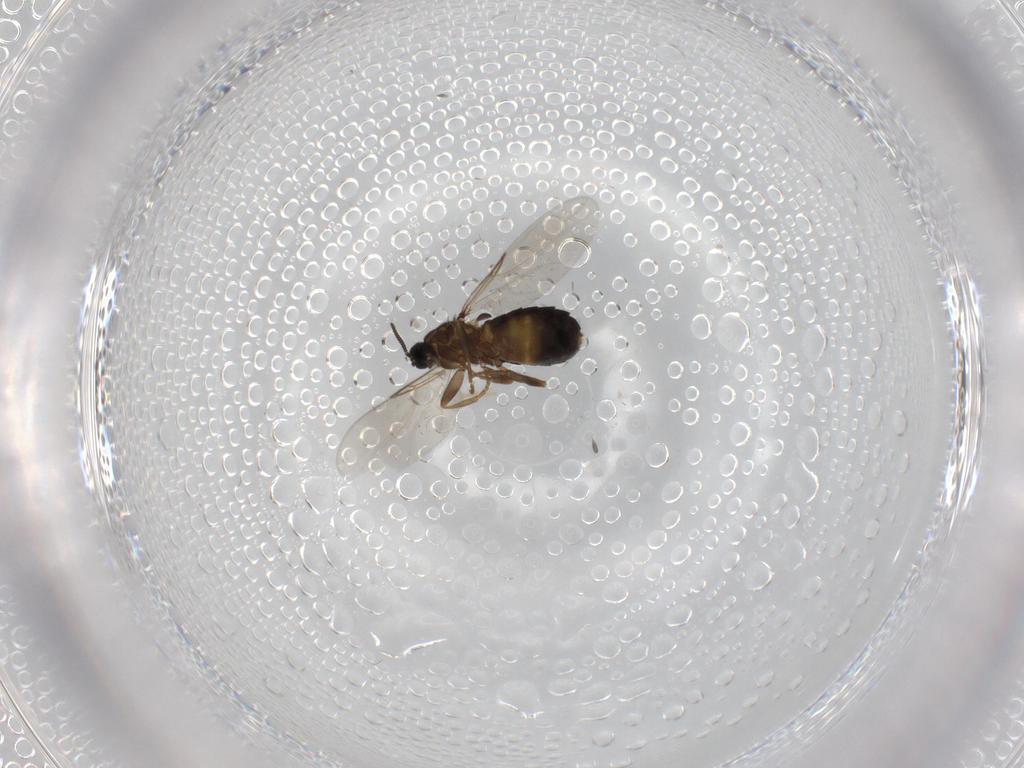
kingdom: Animalia
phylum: Arthropoda
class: Insecta
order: Diptera
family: Scatopsidae
